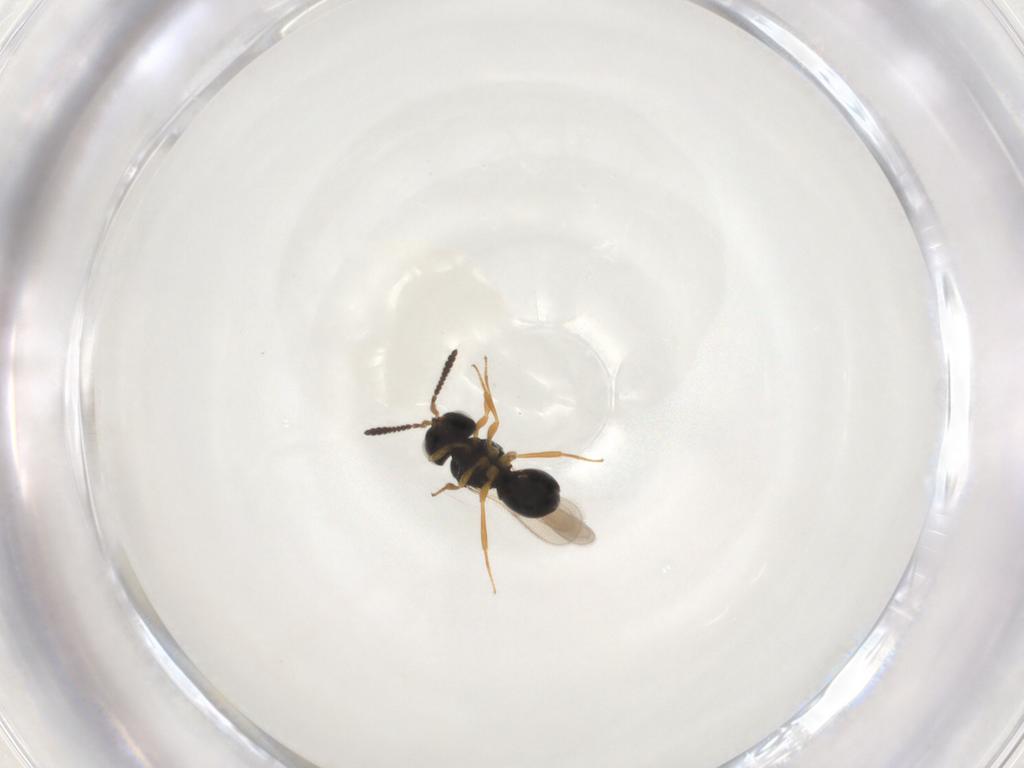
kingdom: Animalia
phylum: Arthropoda
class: Insecta
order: Hymenoptera
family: Scelionidae
